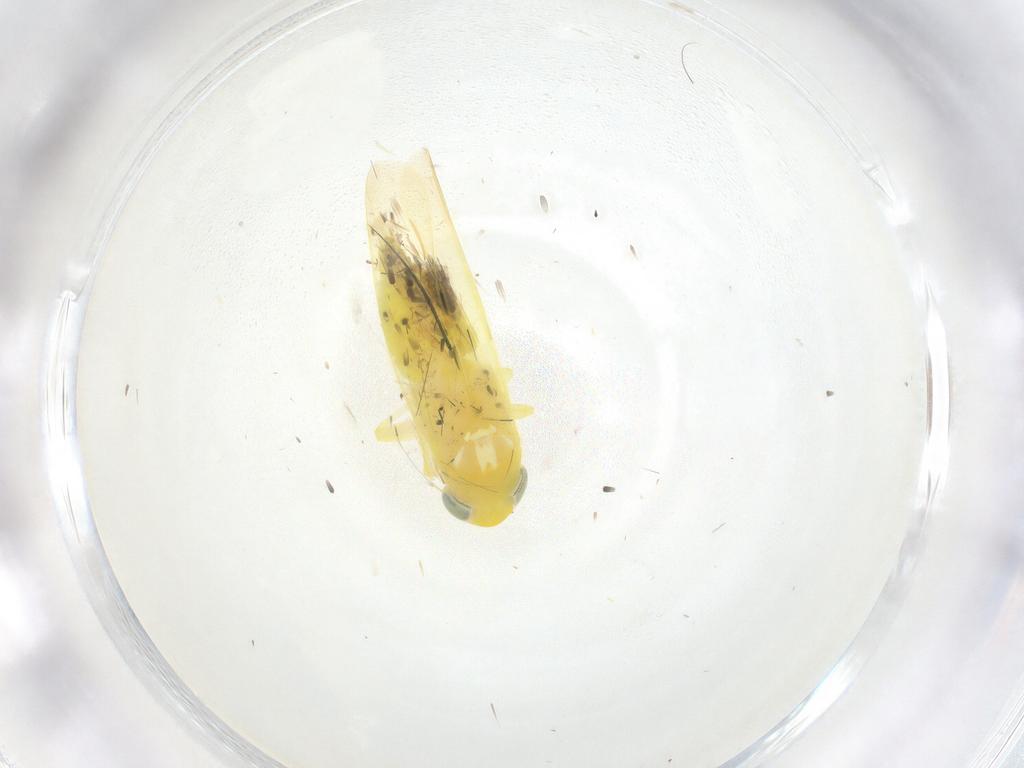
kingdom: Animalia
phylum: Arthropoda
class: Insecta
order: Hemiptera
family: Cicadellidae
